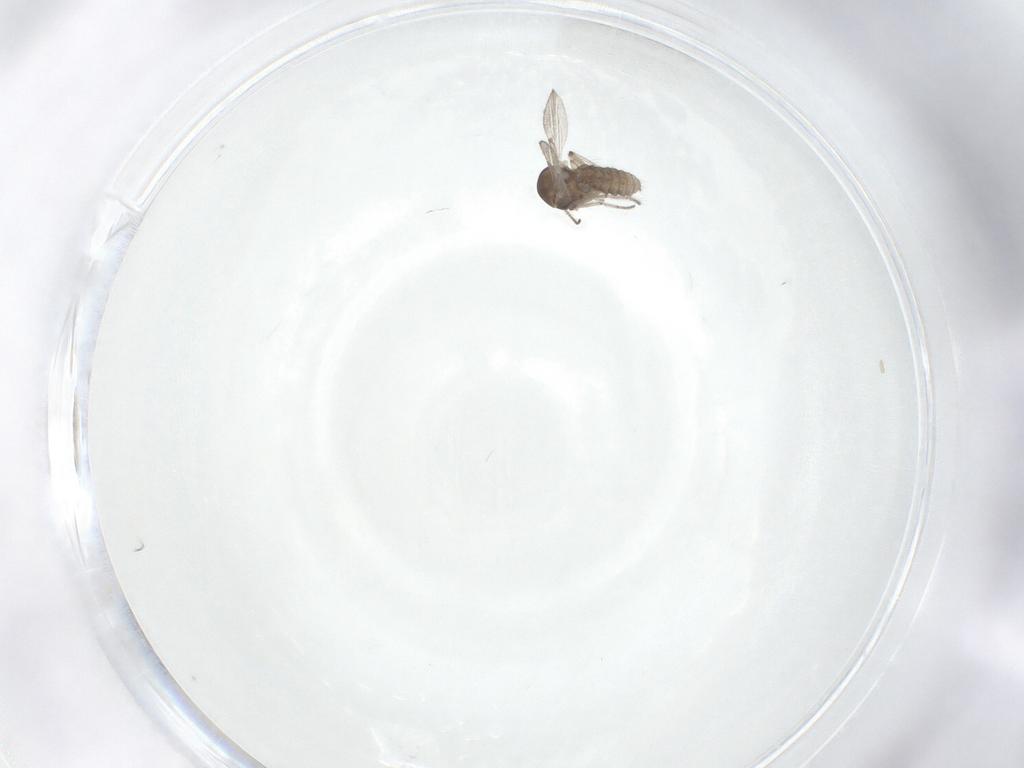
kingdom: Animalia
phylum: Arthropoda
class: Insecta
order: Diptera
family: Ceratopogonidae
